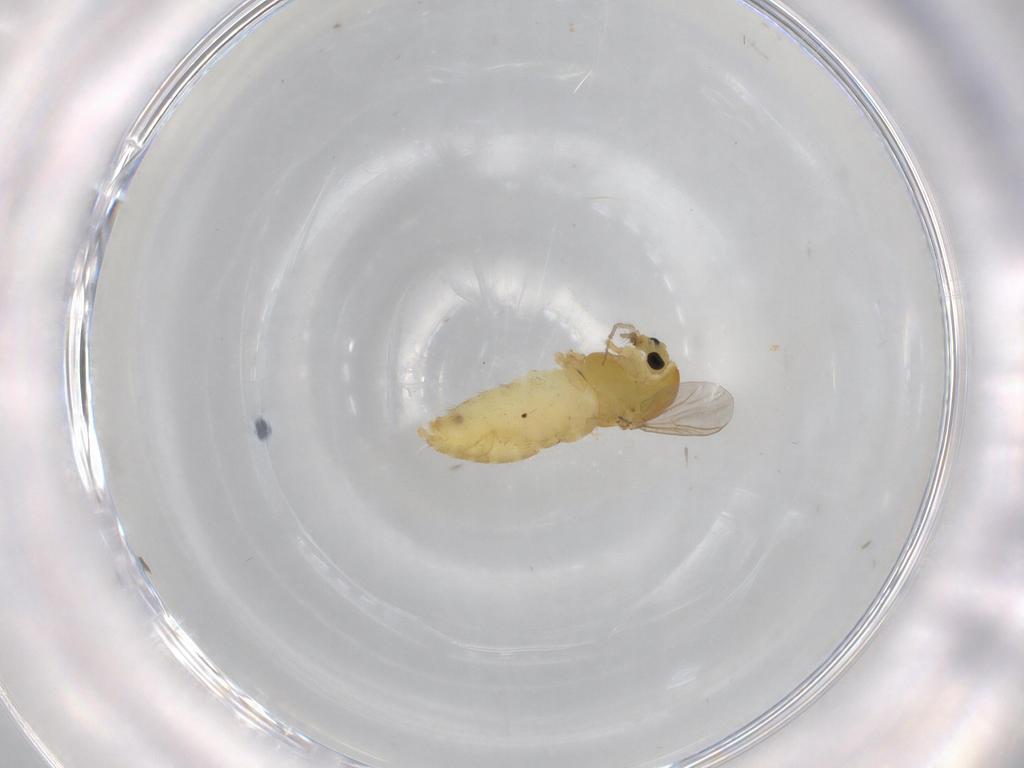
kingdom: Animalia
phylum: Arthropoda
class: Insecta
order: Diptera
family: Chironomidae
